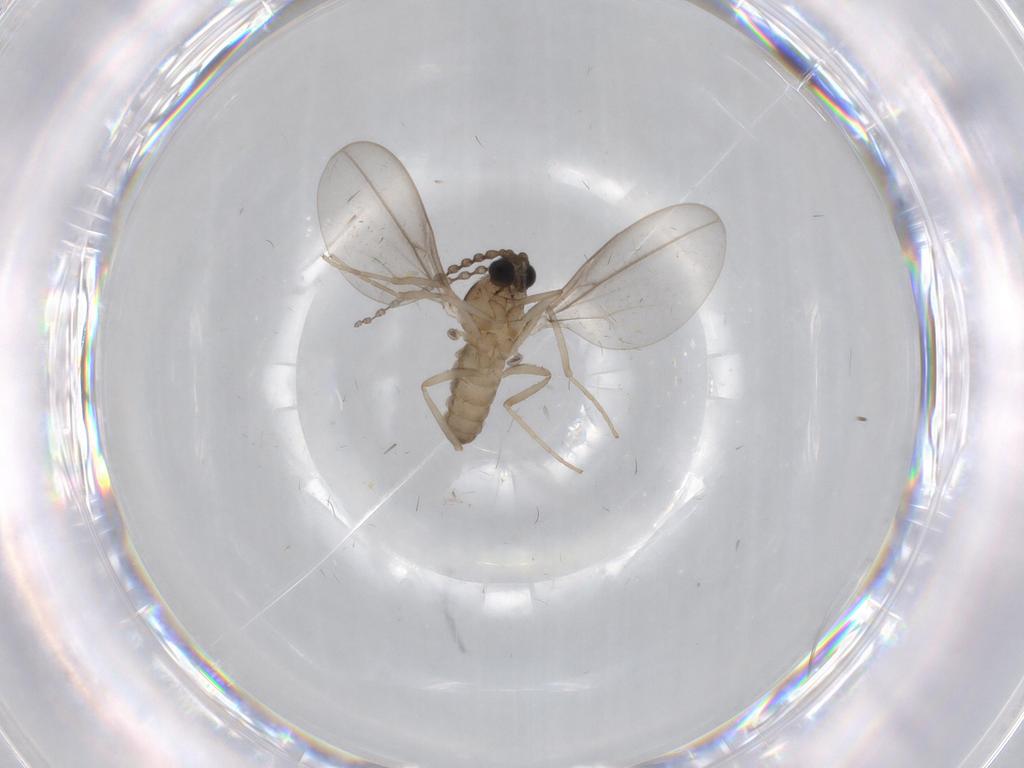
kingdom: Animalia
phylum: Arthropoda
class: Insecta
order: Diptera
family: Cecidomyiidae
